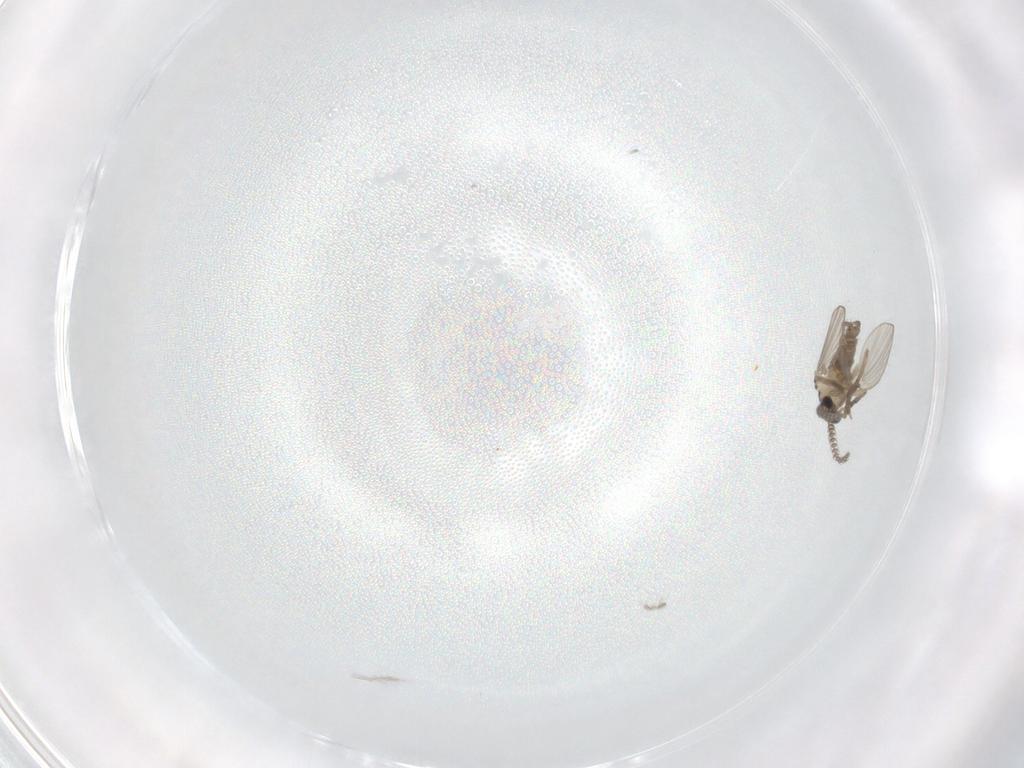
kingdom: Animalia
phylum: Arthropoda
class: Insecta
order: Diptera
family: Psychodidae
